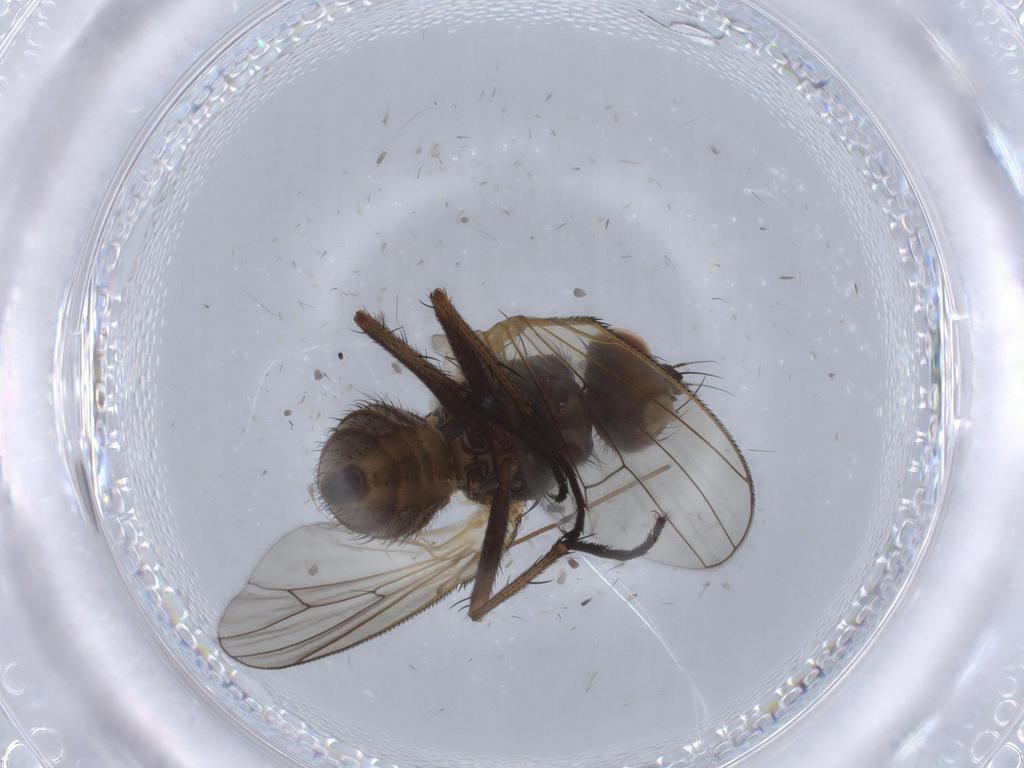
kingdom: Animalia
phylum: Arthropoda
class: Insecta
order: Diptera
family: Anthomyiidae
